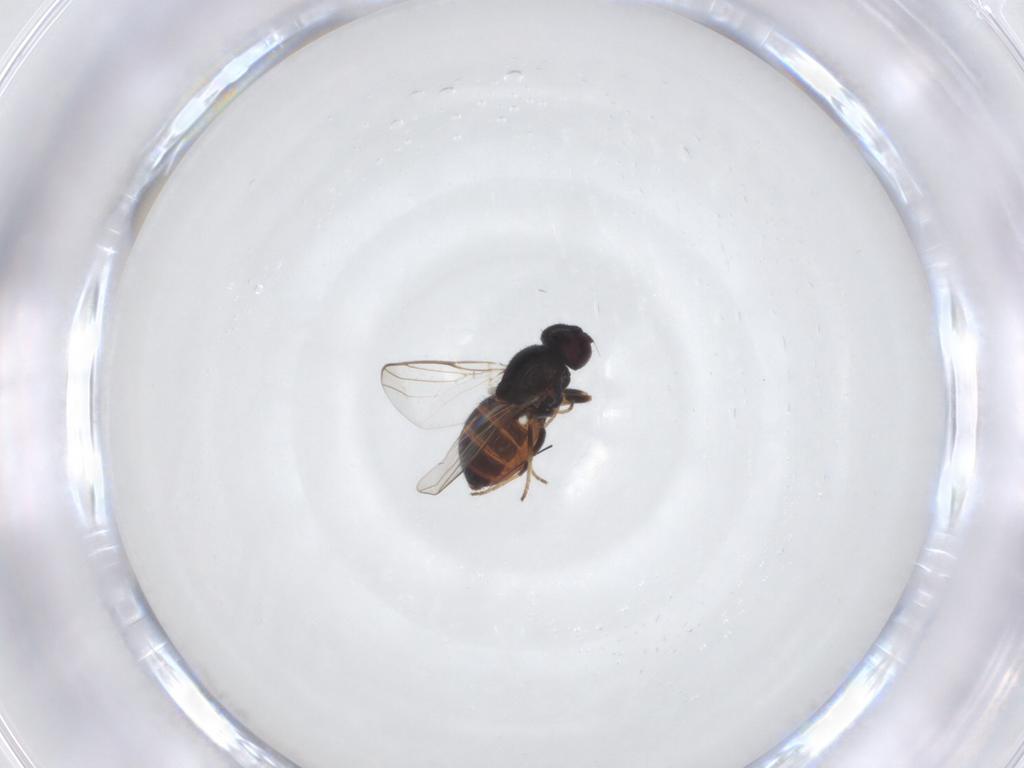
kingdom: Animalia
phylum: Arthropoda
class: Insecta
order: Diptera
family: Chloropidae
